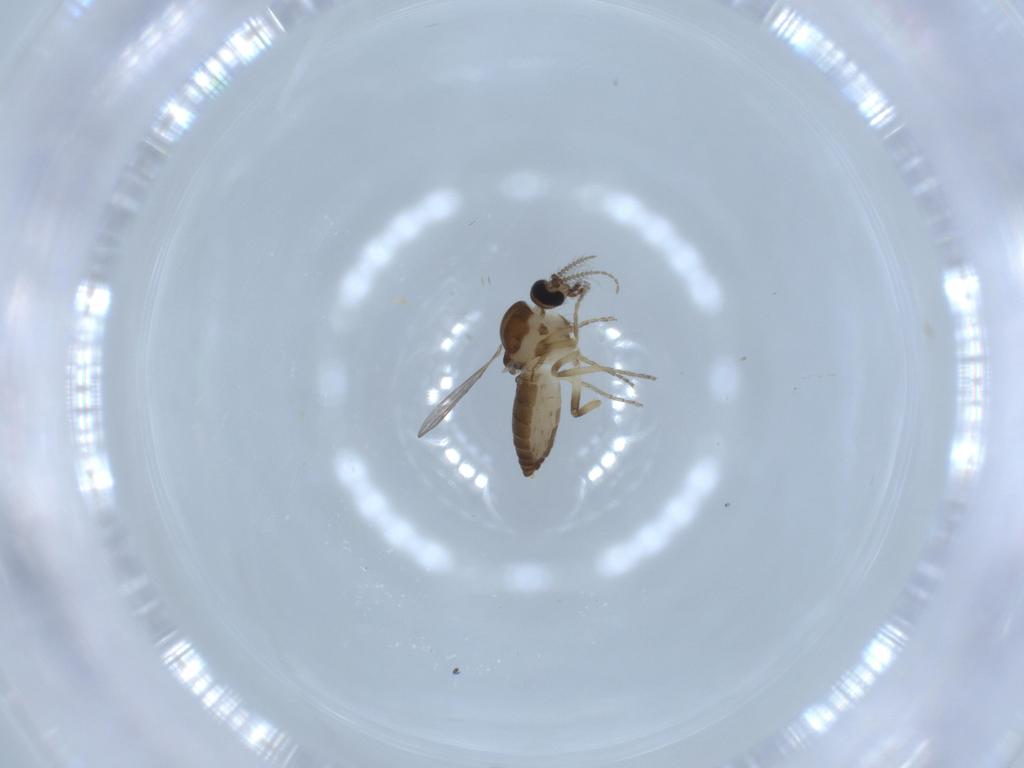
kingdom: Animalia
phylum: Arthropoda
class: Insecta
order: Diptera
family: Ceratopogonidae
